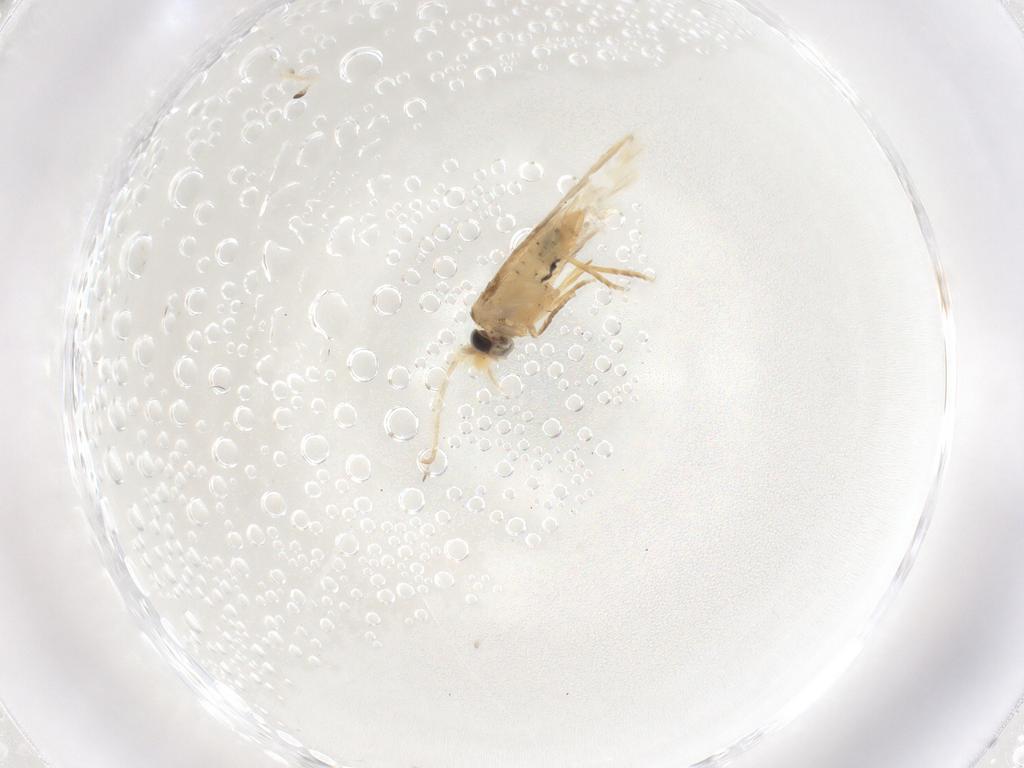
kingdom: Animalia
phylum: Arthropoda
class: Insecta
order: Lepidoptera
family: Nepticulidae
